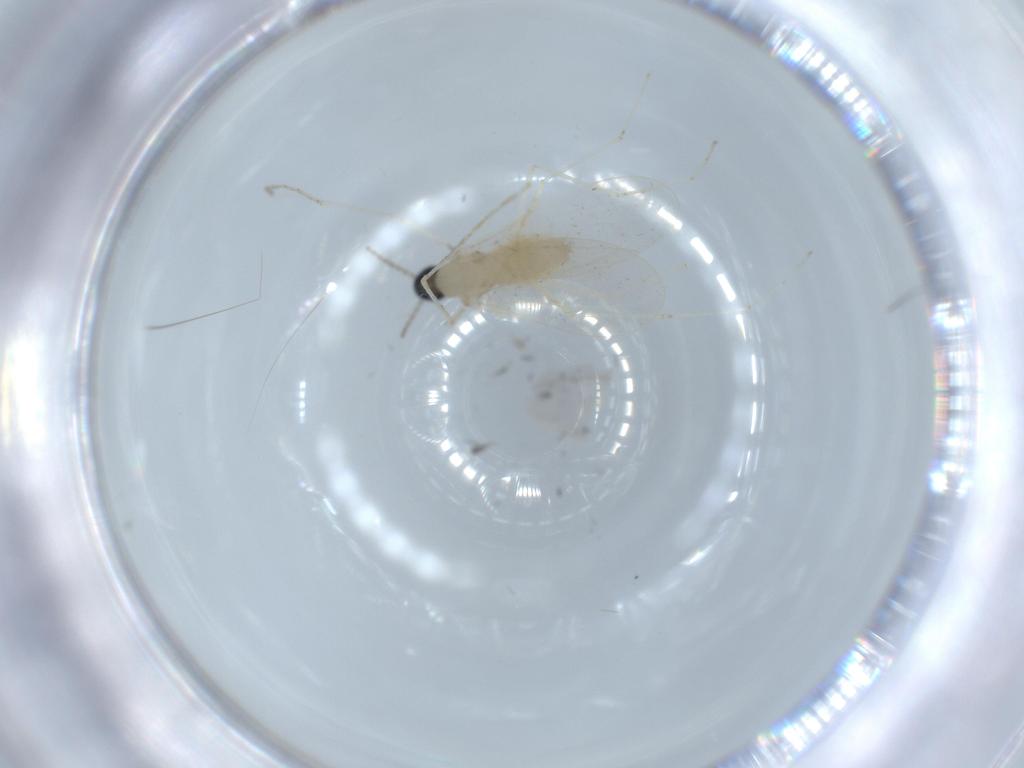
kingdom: Animalia
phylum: Arthropoda
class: Insecta
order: Diptera
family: Cecidomyiidae
